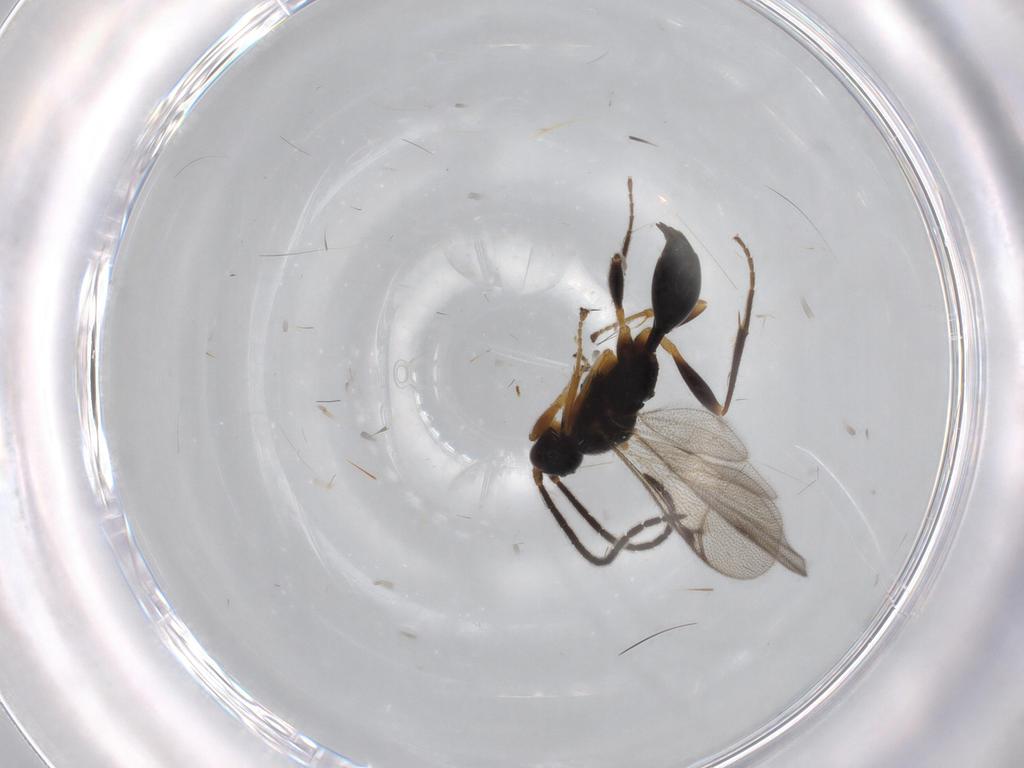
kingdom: Animalia
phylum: Arthropoda
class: Insecta
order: Hymenoptera
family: Proctotrupidae
